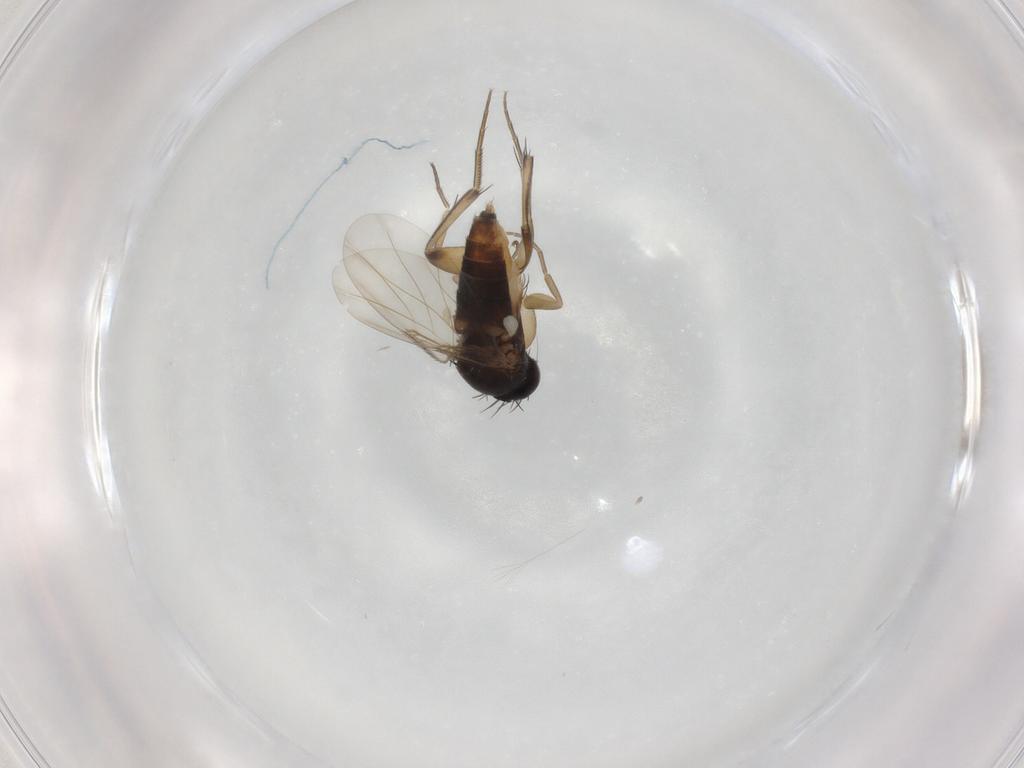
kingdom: Animalia
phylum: Arthropoda
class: Insecta
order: Diptera
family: Phoridae
